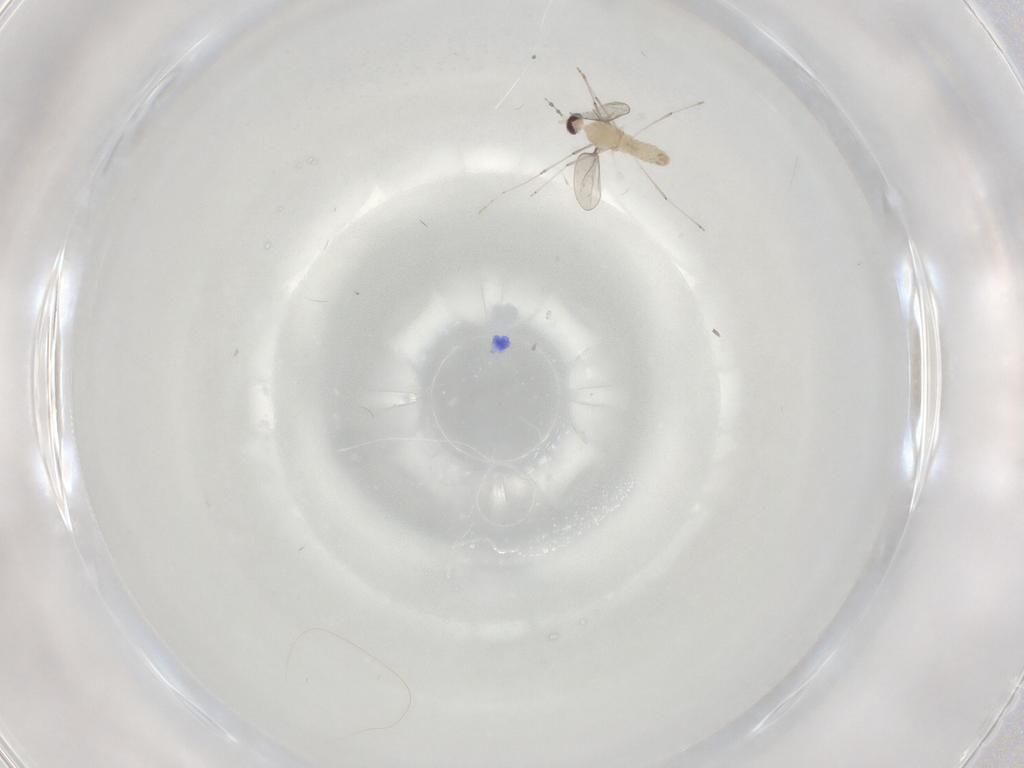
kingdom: Animalia
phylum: Arthropoda
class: Insecta
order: Diptera
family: Cecidomyiidae
